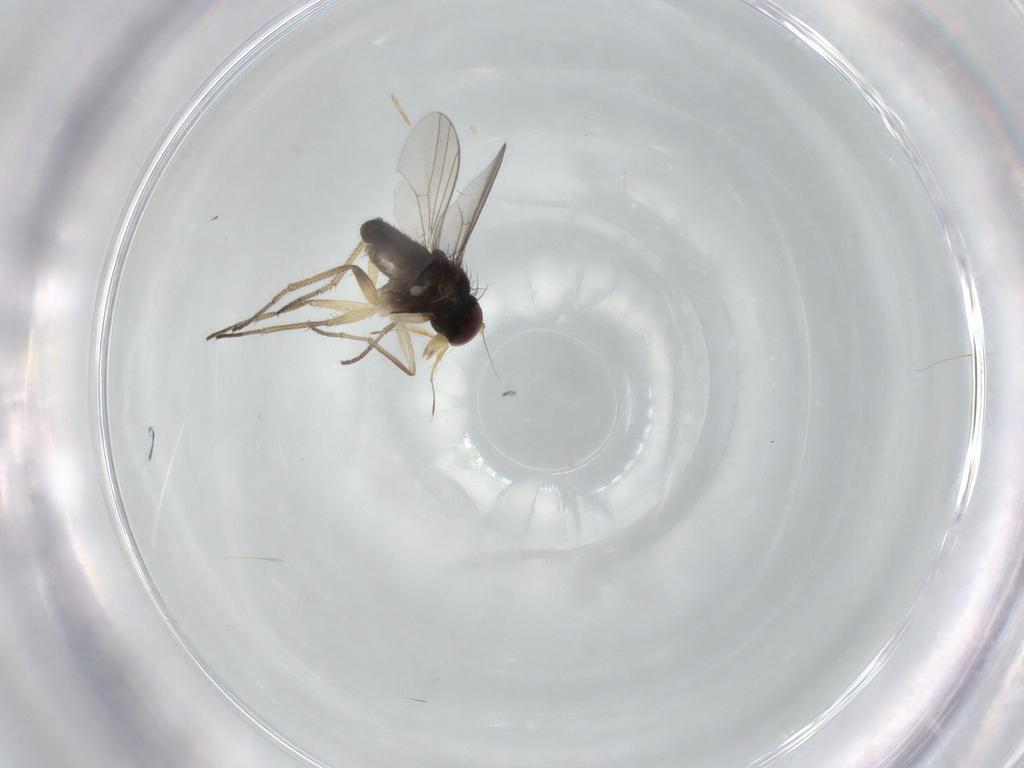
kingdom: Animalia
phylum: Arthropoda
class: Insecta
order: Diptera
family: Dolichopodidae
